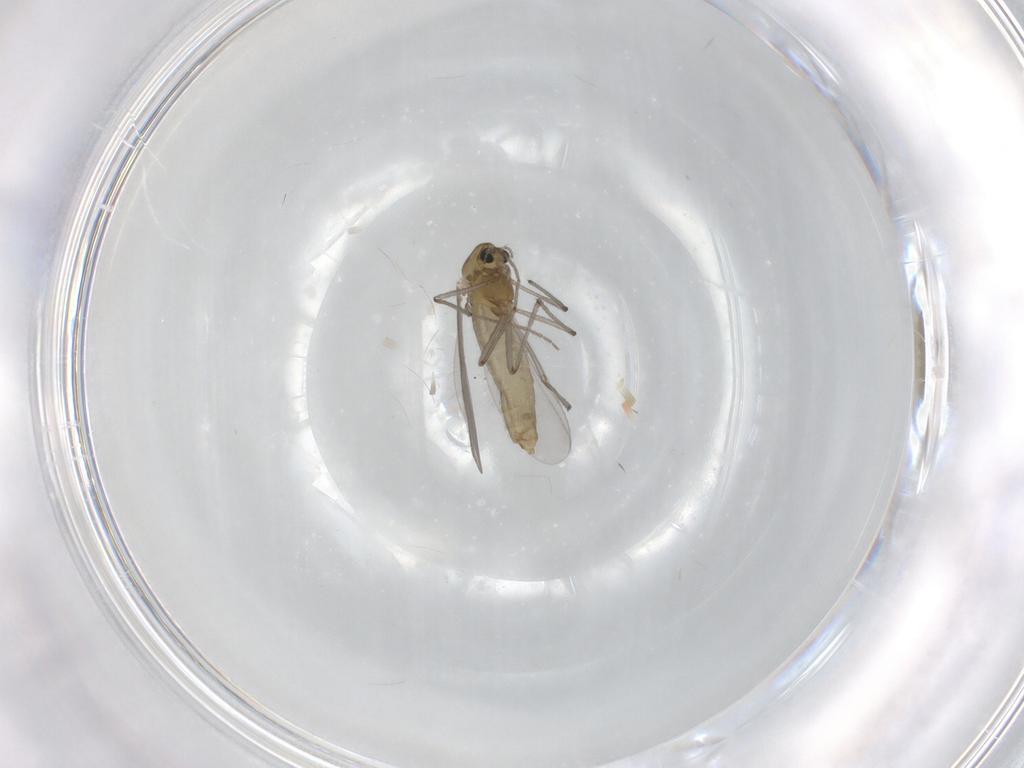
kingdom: Animalia
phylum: Arthropoda
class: Insecta
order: Diptera
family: Chironomidae
